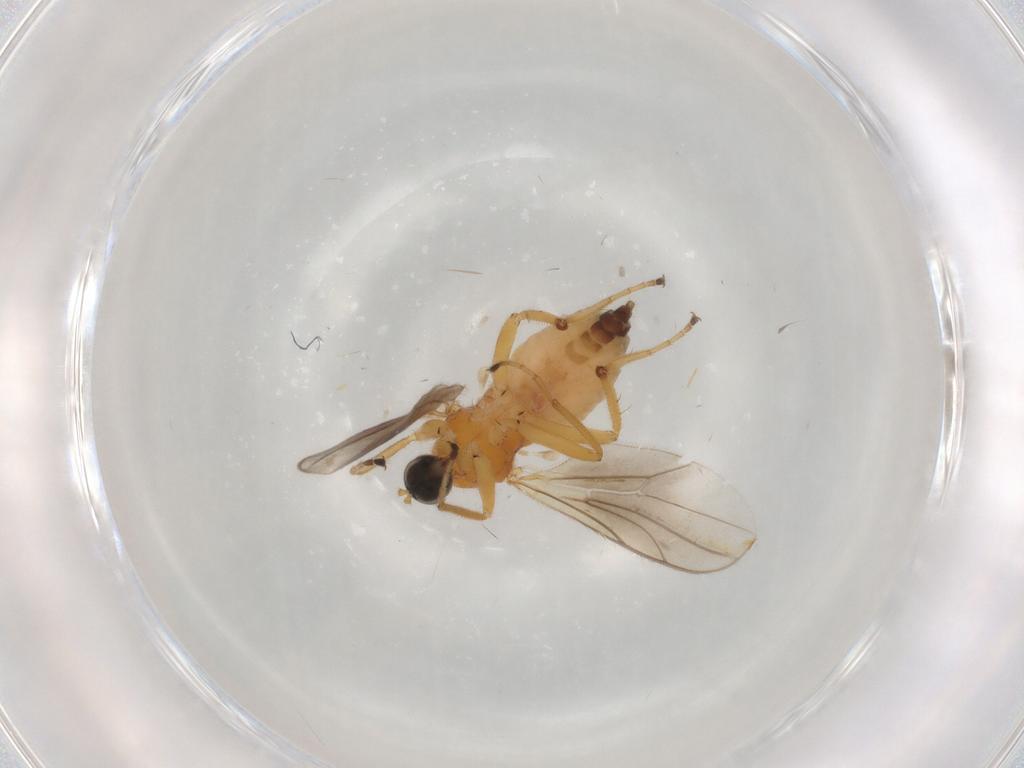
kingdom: Animalia
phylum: Arthropoda
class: Insecta
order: Diptera
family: Hybotidae
